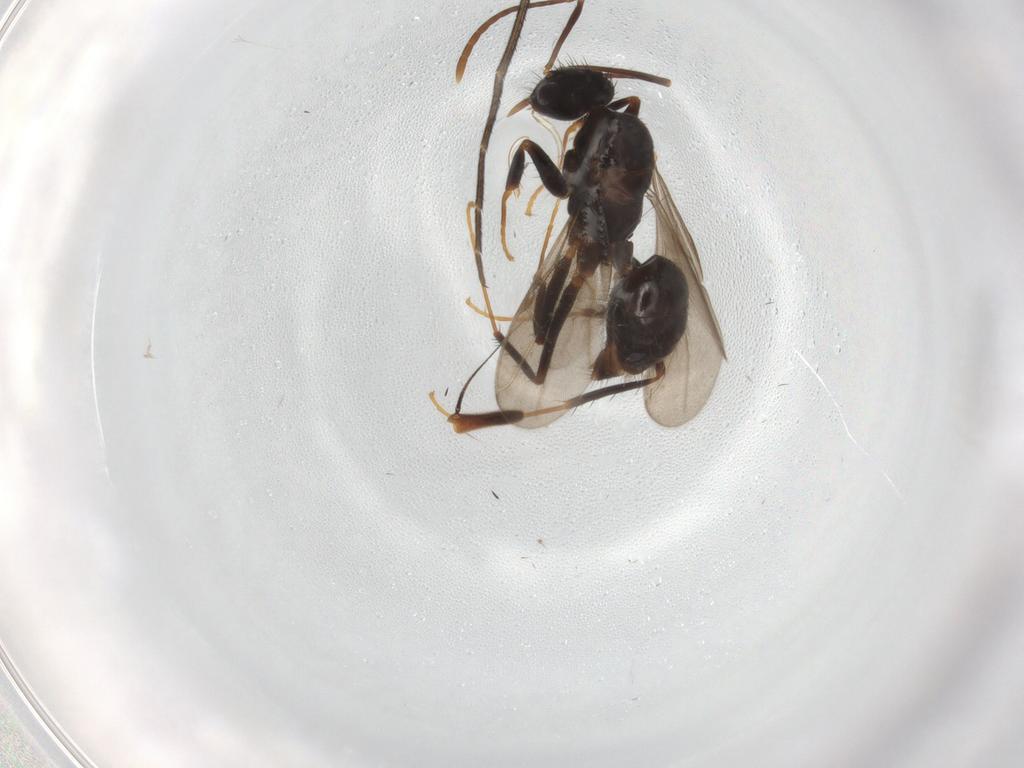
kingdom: Animalia
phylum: Arthropoda
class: Insecta
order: Hymenoptera
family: Formicidae
